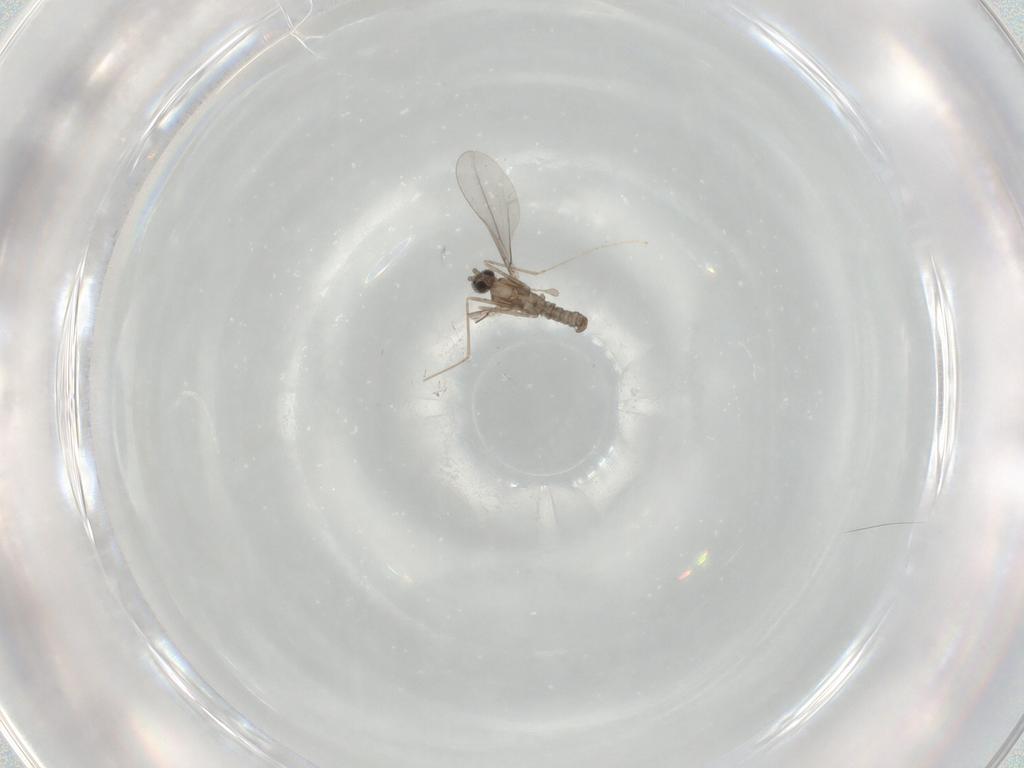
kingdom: Animalia
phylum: Arthropoda
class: Insecta
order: Diptera
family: Cecidomyiidae
